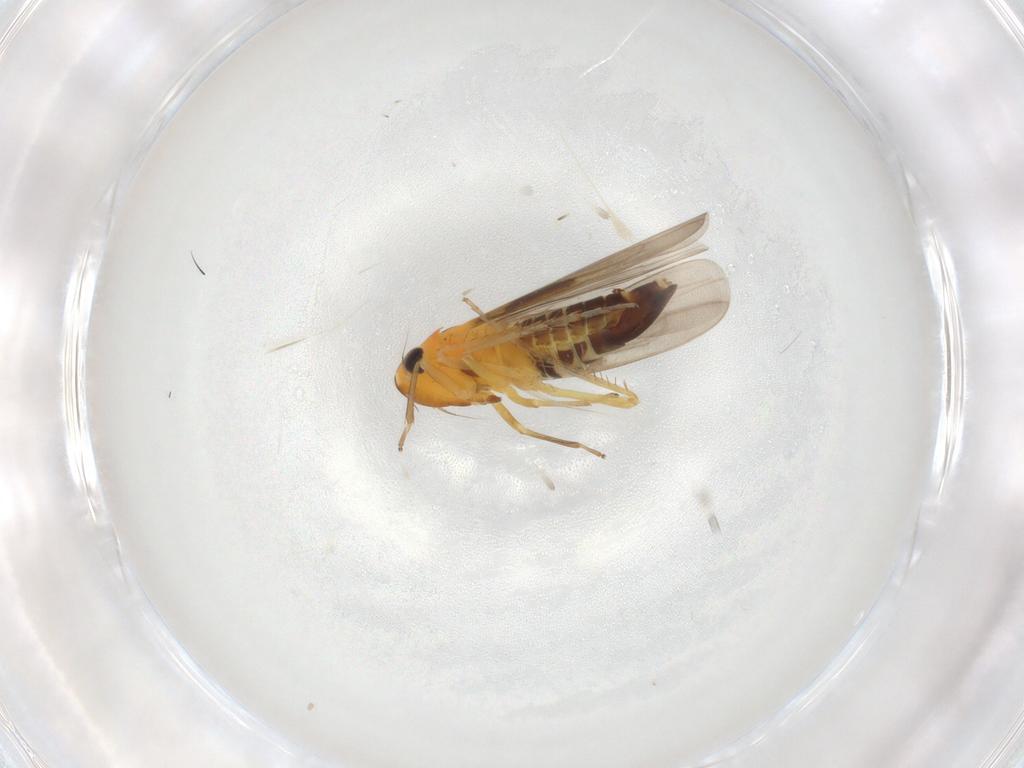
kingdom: Animalia
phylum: Arthropoda
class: Insecta
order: Hemiptera
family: Cicadellidae
